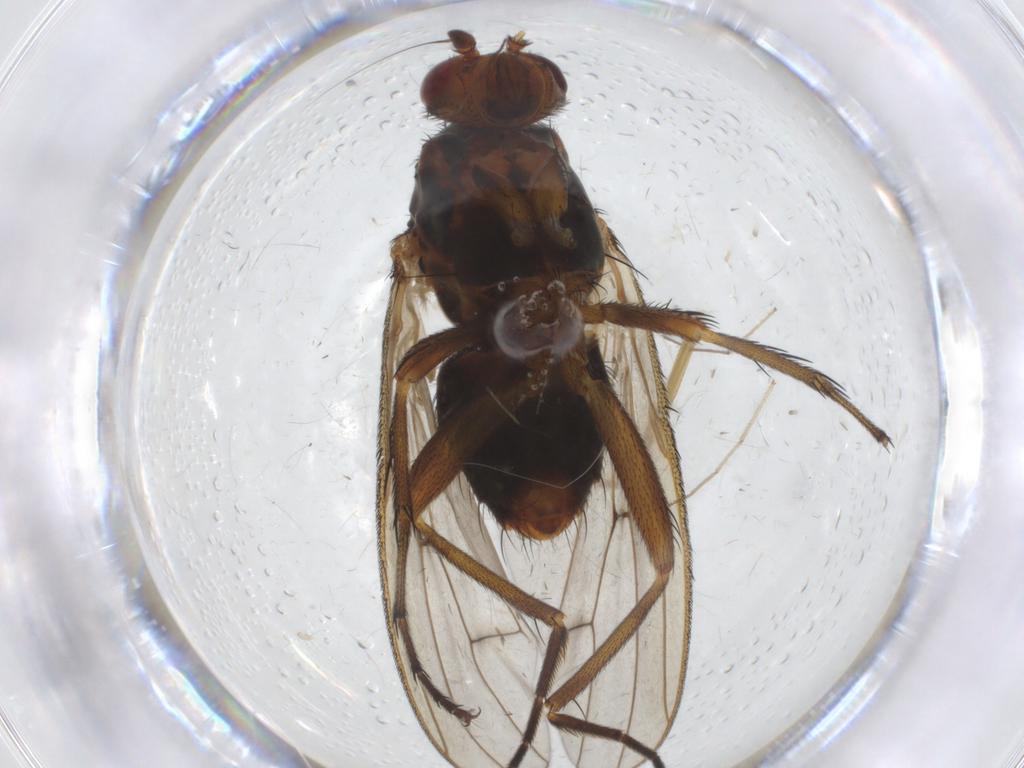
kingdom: Animalia
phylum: Arthropoda
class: Insecta
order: Diptera
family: Heleomyzidae
